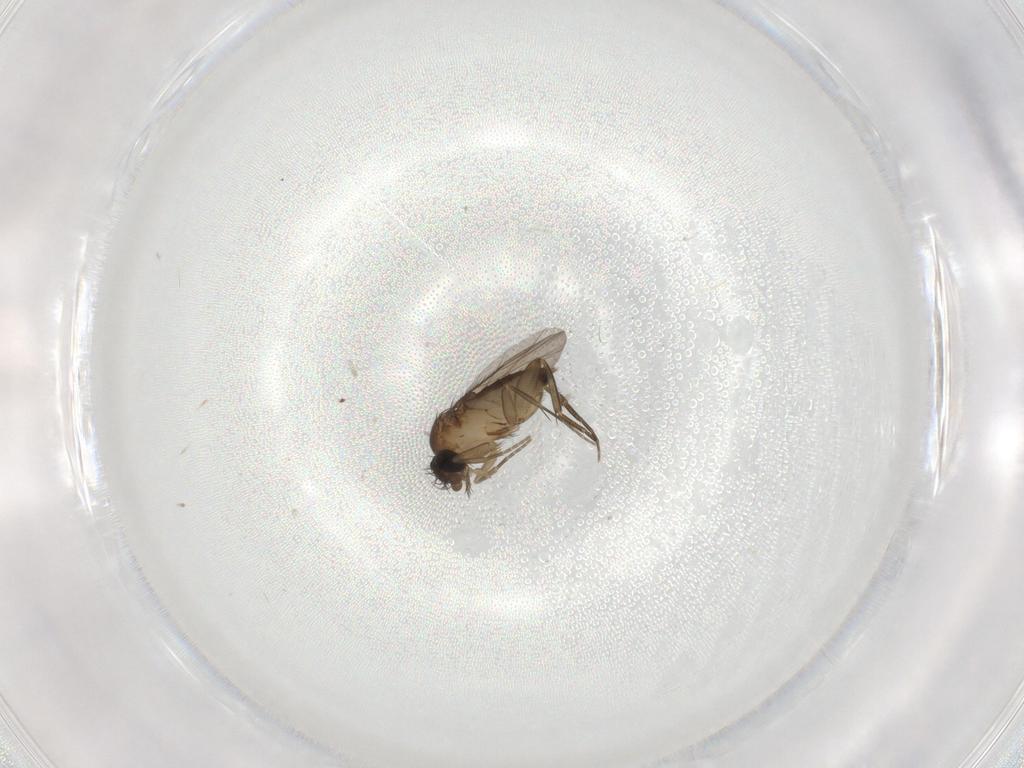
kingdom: Animalia
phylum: Arthropoda
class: Insecta
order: Diptera
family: Phoridae
